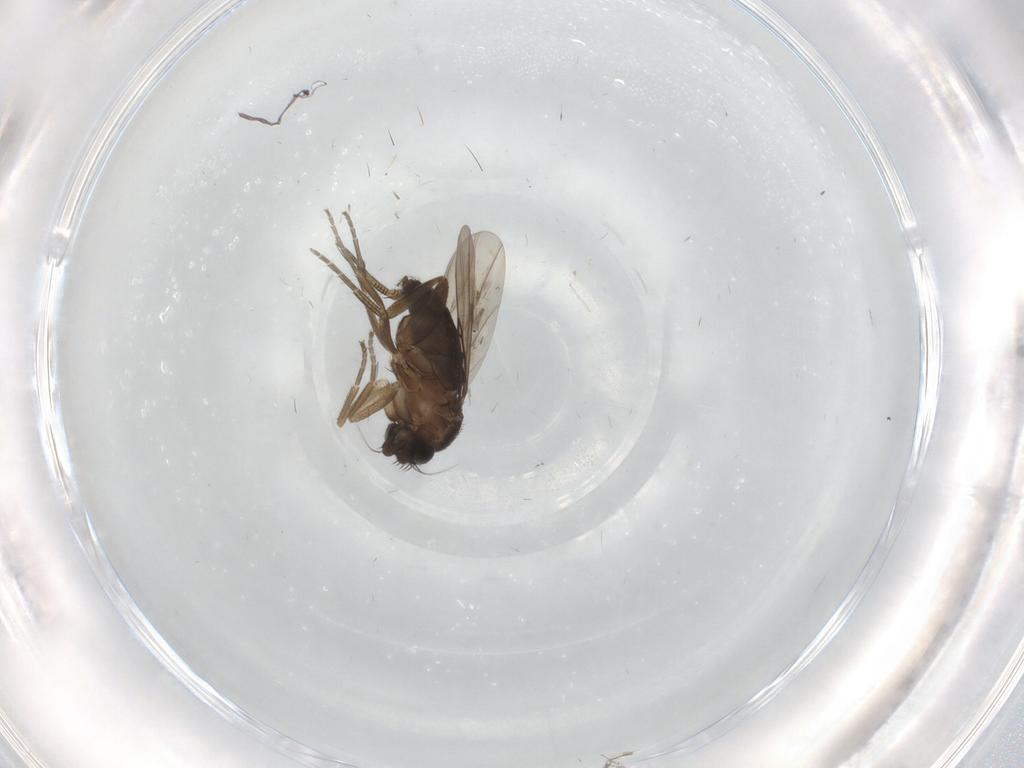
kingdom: Animalia
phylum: Arthropoda
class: Insecta
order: Diptera
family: Phoridae
